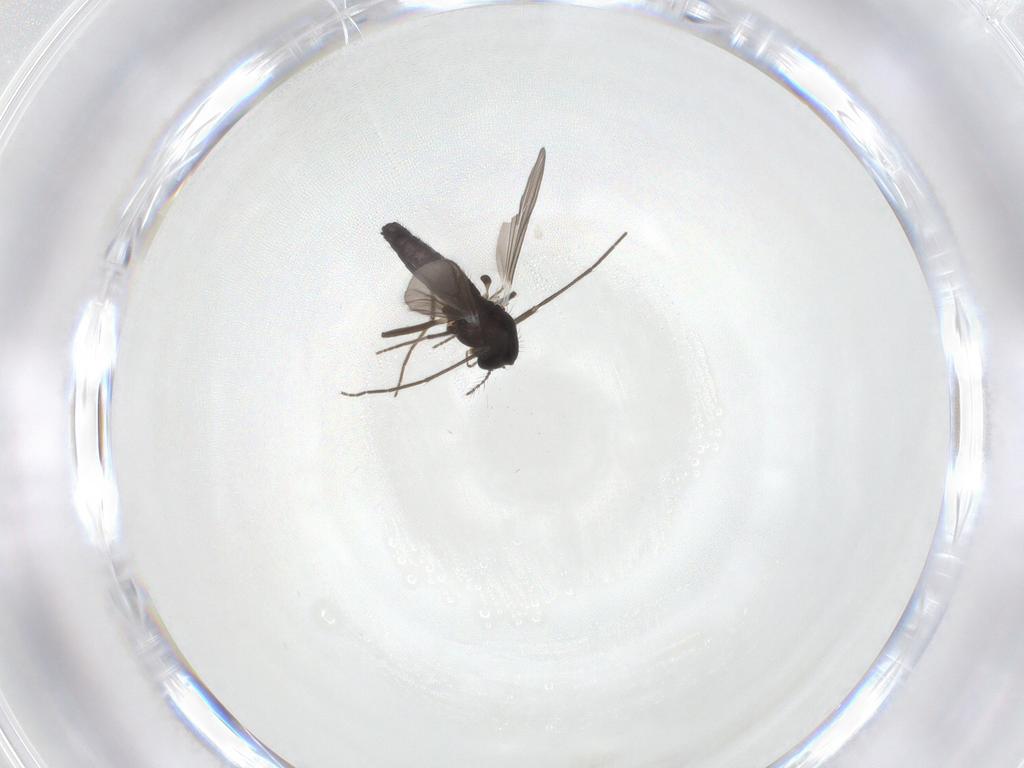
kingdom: Animalia
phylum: Arthropoda
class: Insecta
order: Diptera
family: Chironomidae
